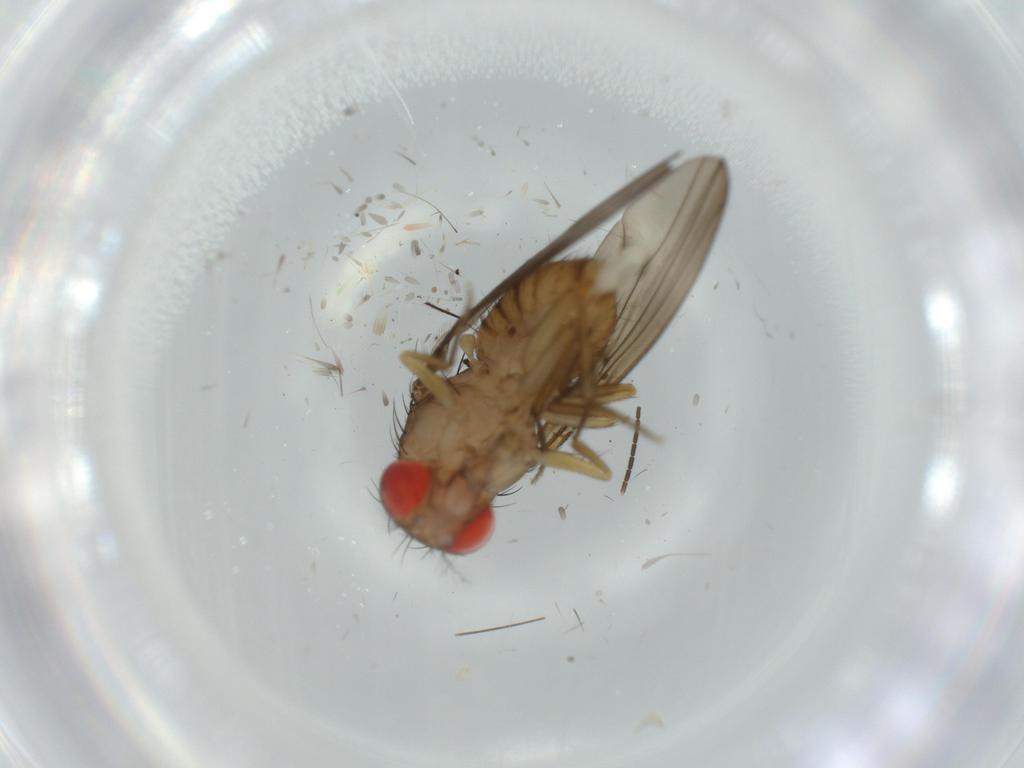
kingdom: Animalia
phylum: Arthropoda
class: Insecta
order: Diptera
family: Drosophilidae
